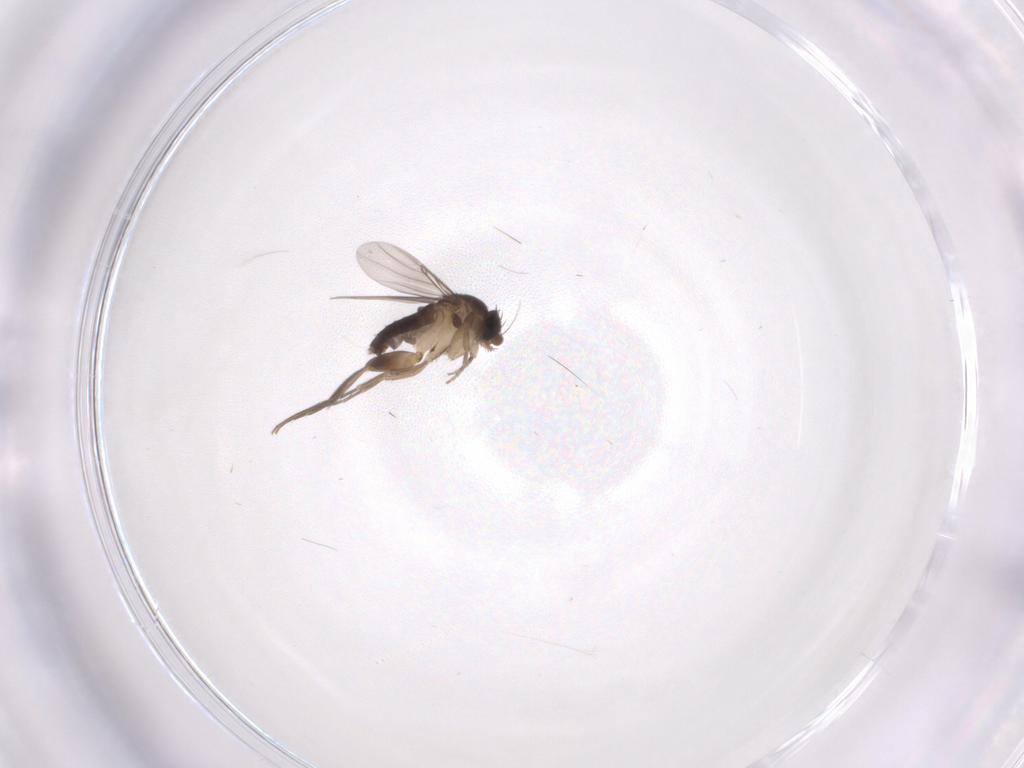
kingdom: Animalia
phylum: Arthropoda
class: Insecta
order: Diptera
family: Phoridae
